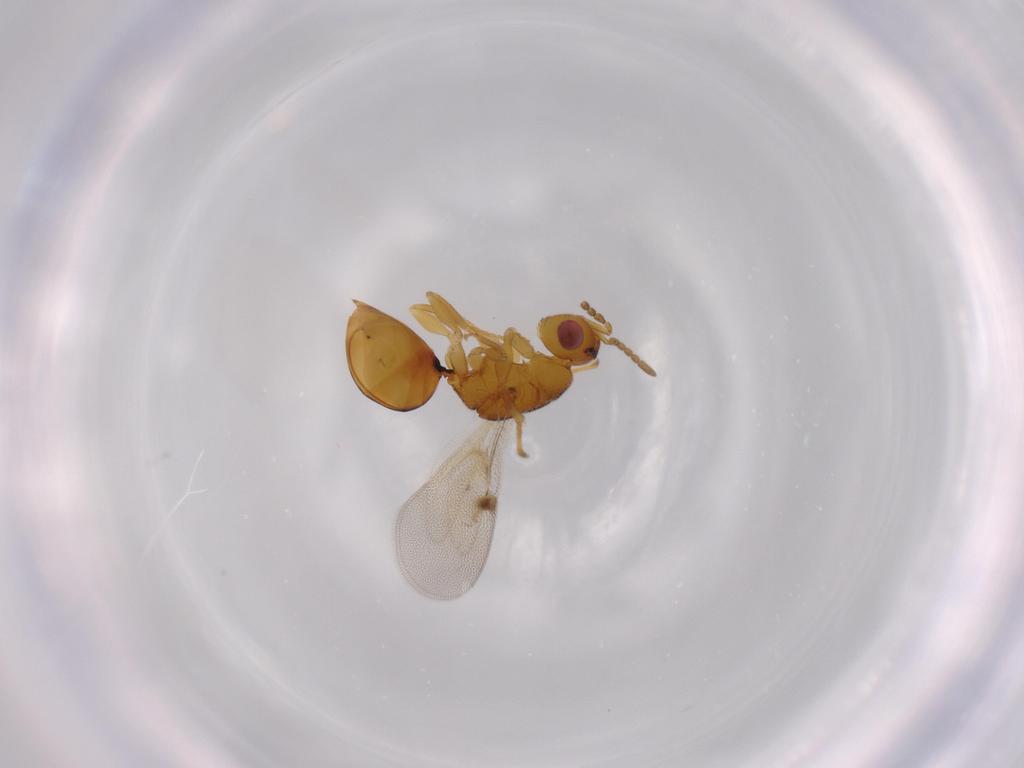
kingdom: Animalia
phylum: Arthropoda
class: Insecta
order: Hymenoptera
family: Eurytomidae
